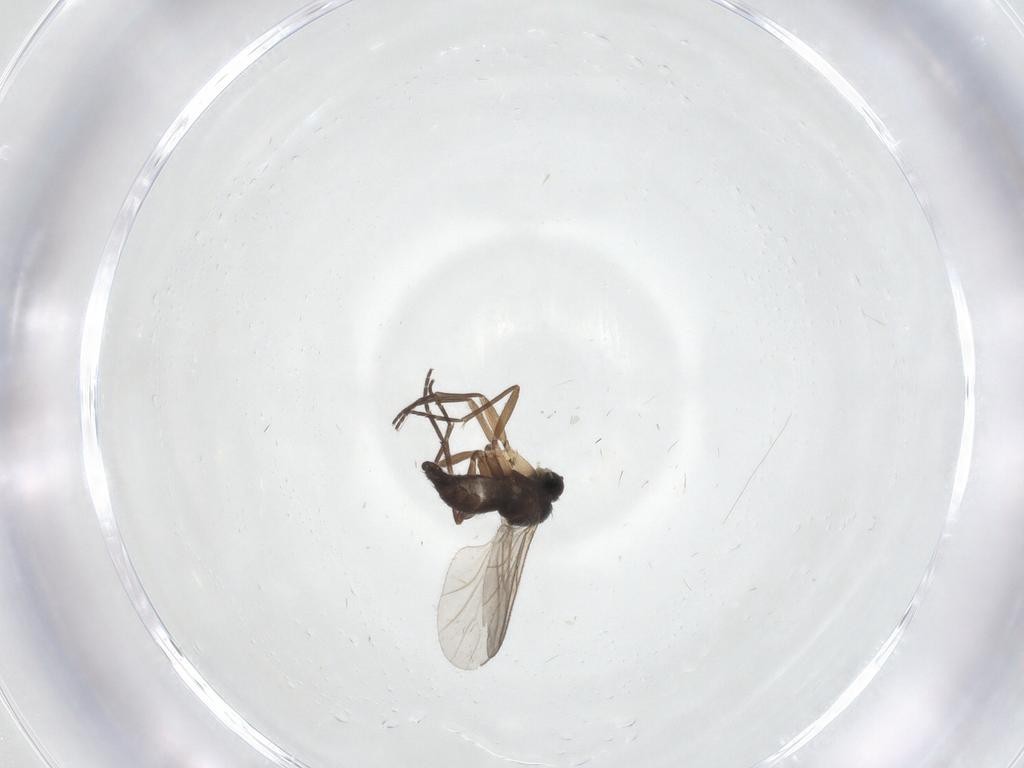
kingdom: Animalia
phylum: Arthropoda
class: Insecta
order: Diptera
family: Sciaridae
